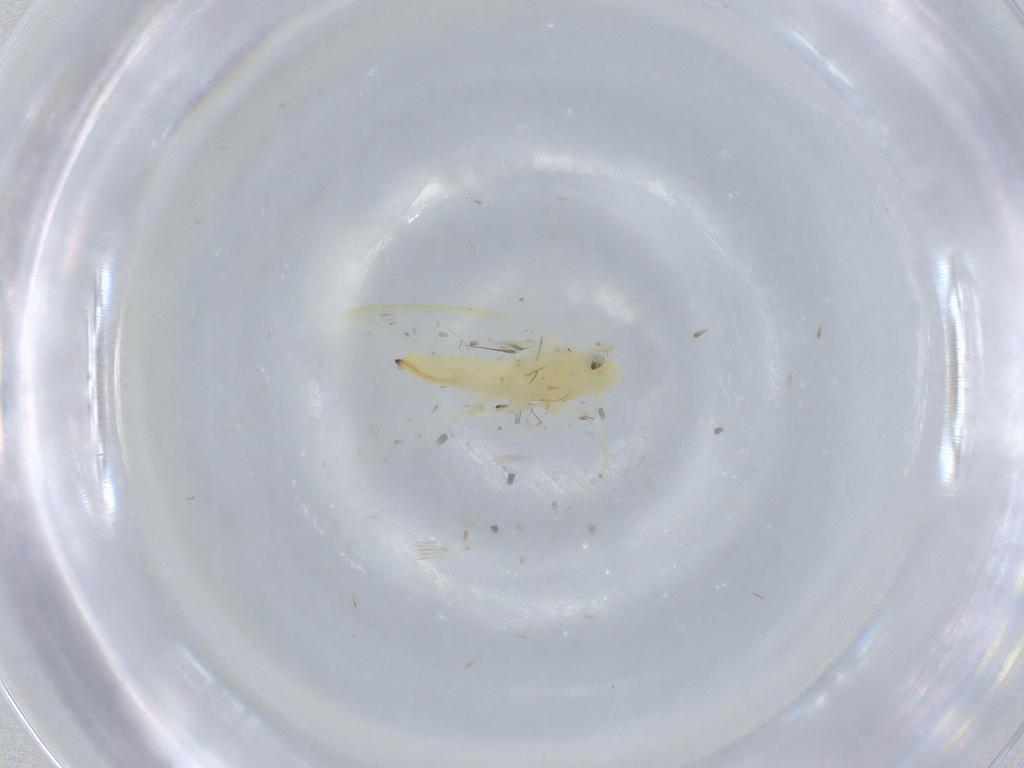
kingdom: Animalia
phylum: Arthropoda
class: Insecta
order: Hemiptera
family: Cicadellidae
